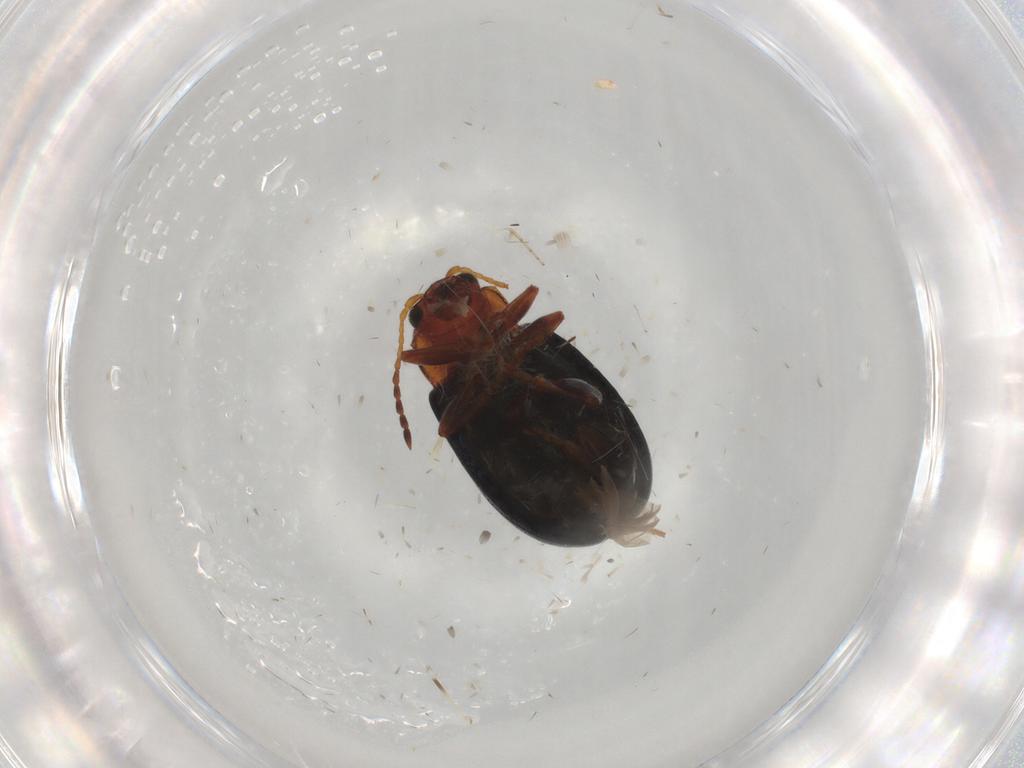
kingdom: Animalia
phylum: Arthropoda
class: Insecta
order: Coleoptera
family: Chrysomelidae
